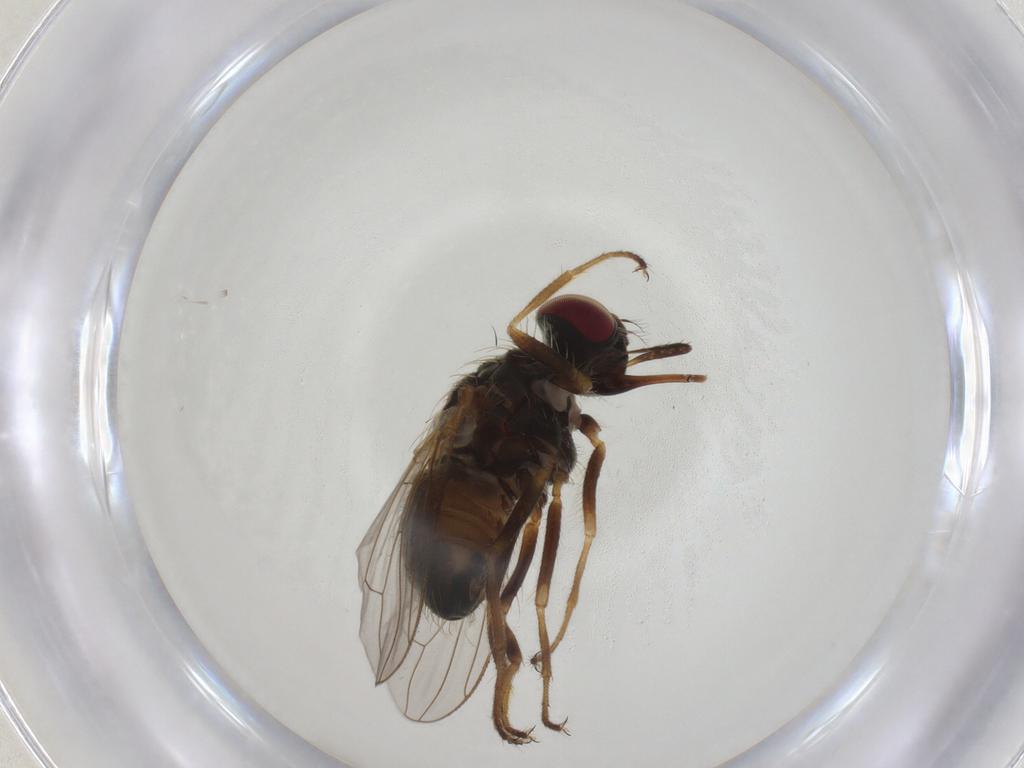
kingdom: Animalia
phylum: Arthropoda
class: Insecta
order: Diptera
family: Muscidae
